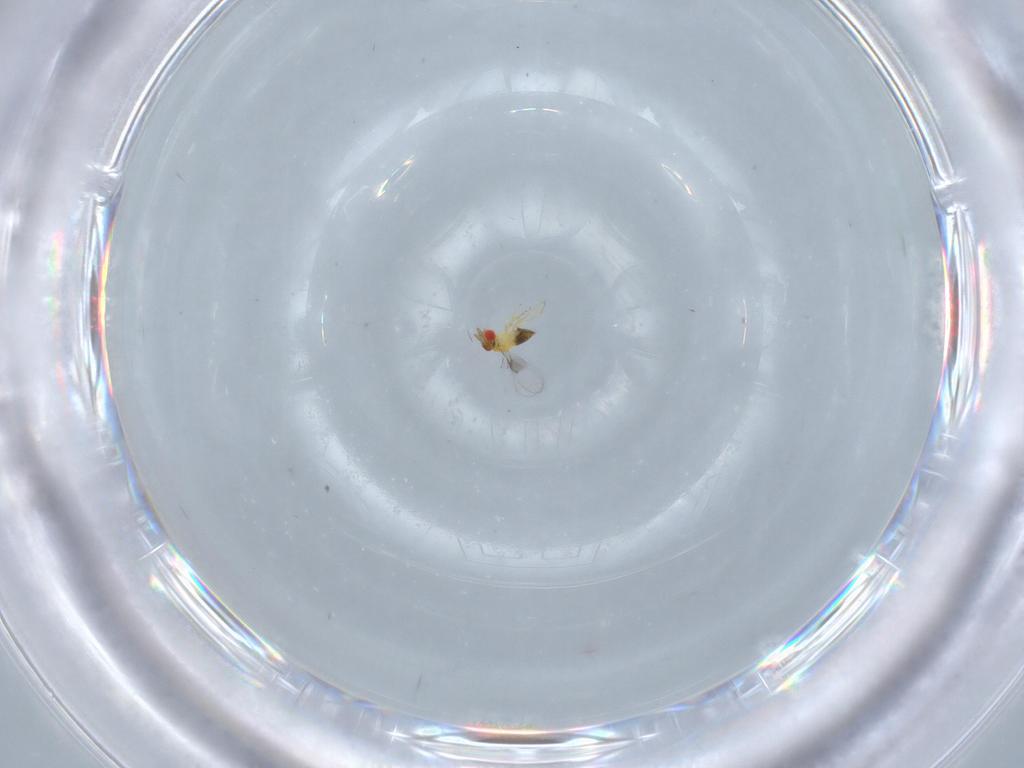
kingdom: Animalia
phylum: Arthropoda
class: Insecta
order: Hymenoptera
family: Trichogrammatidae
